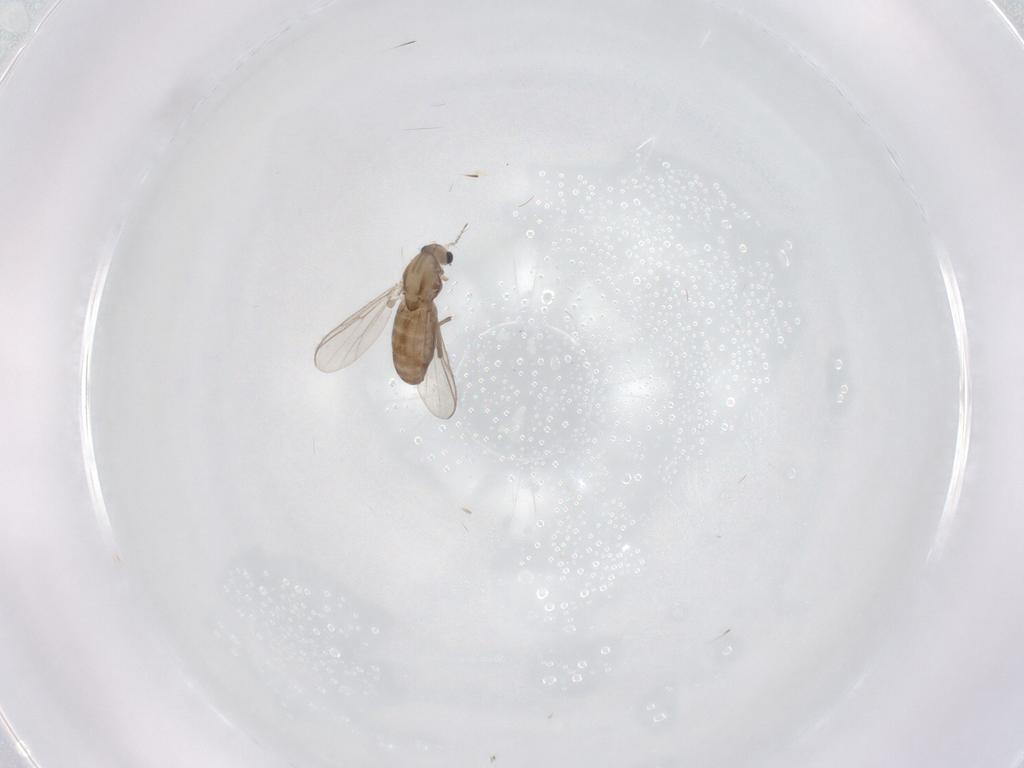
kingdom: Animalia
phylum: Arthropoda
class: Insecta
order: Diptera
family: Chironomidae
